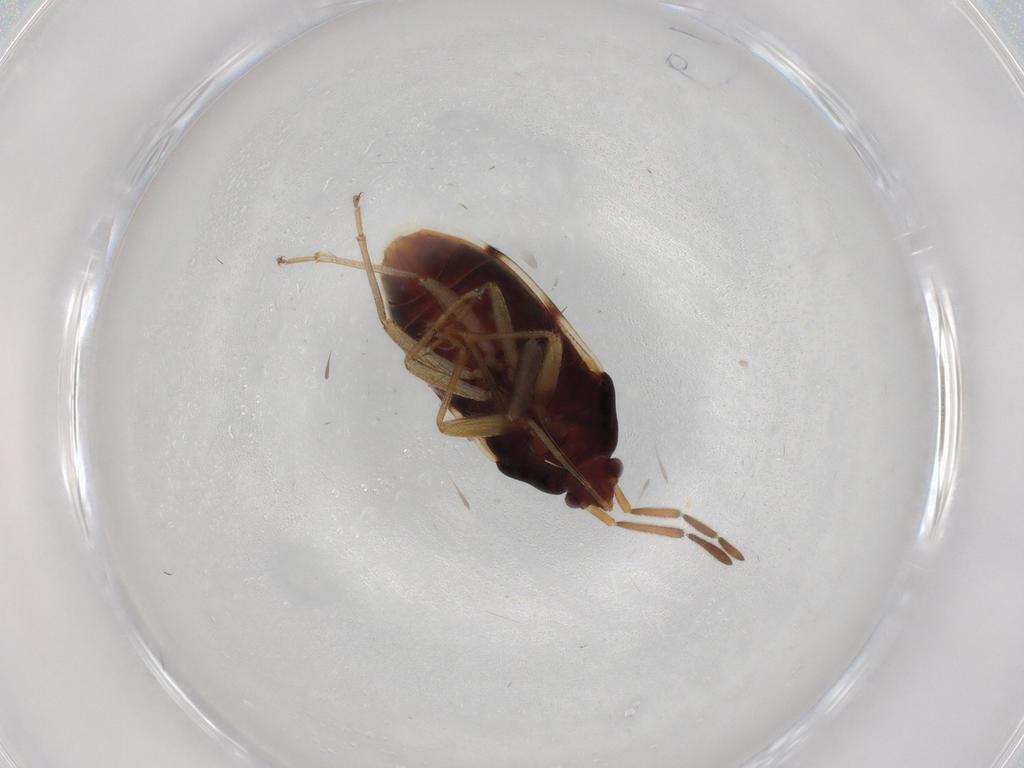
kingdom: Animalia
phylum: Arthropoda
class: Insecta
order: Hemiptera
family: Rhyparochromidae
